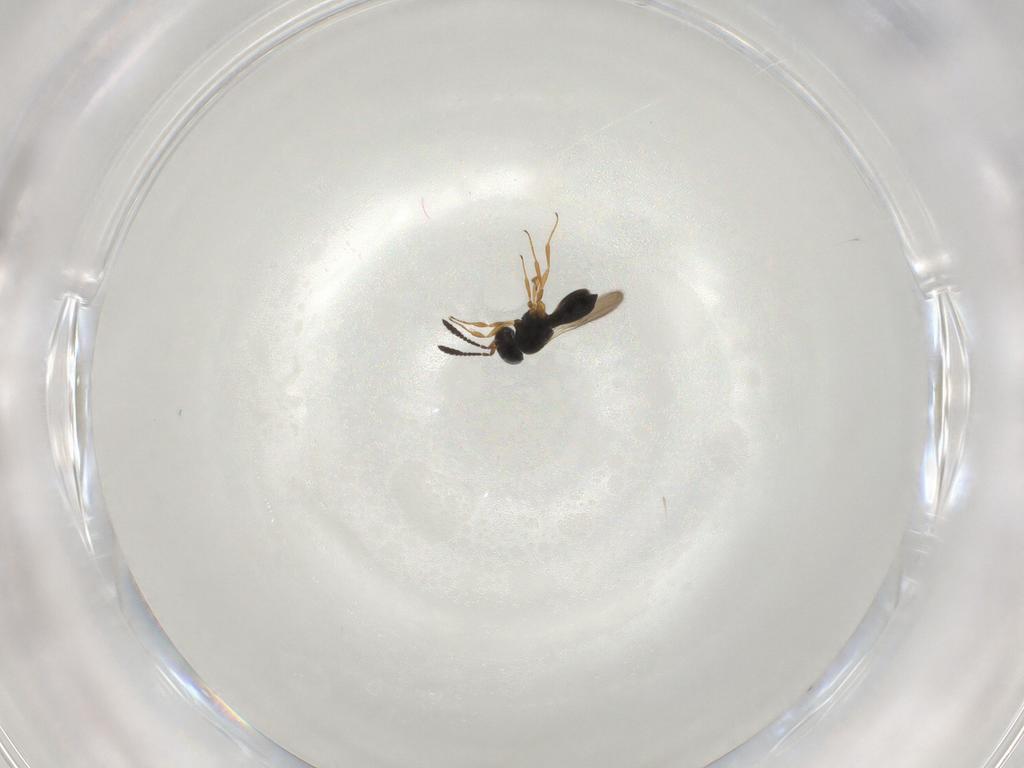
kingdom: Animalia
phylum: Arthropoda
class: Insecta
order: Hymenoptera
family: Scelionidae
